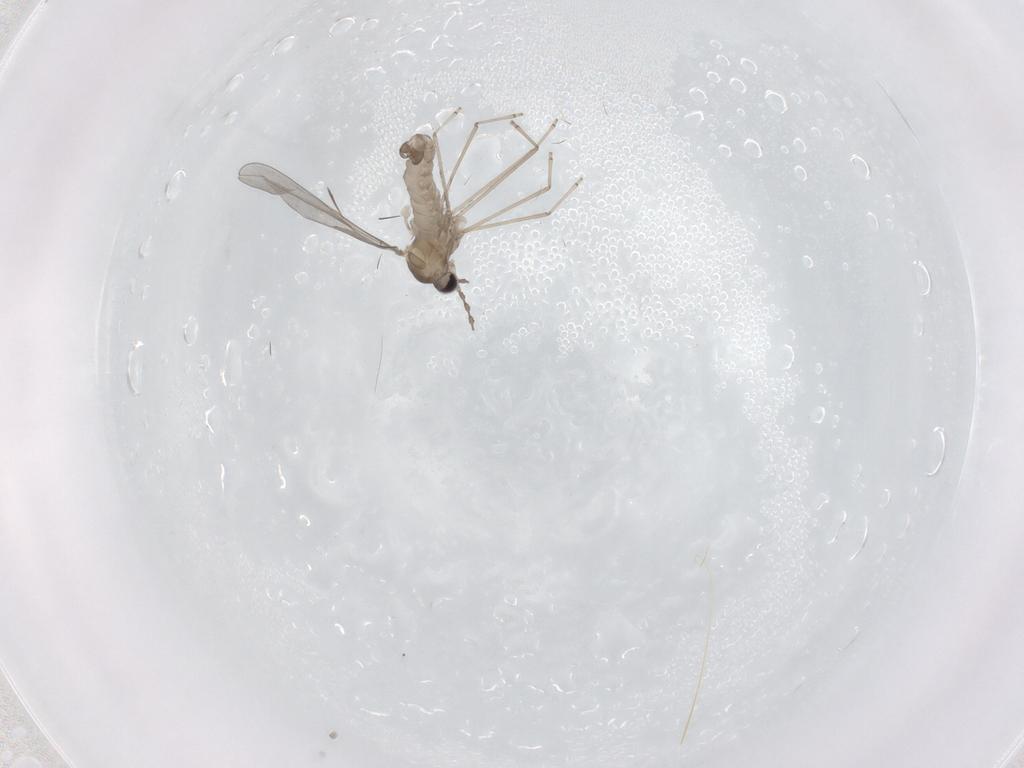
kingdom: Animalia
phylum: Arthropoda
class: Insecta
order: Diptera
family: Cecidomyiidae
